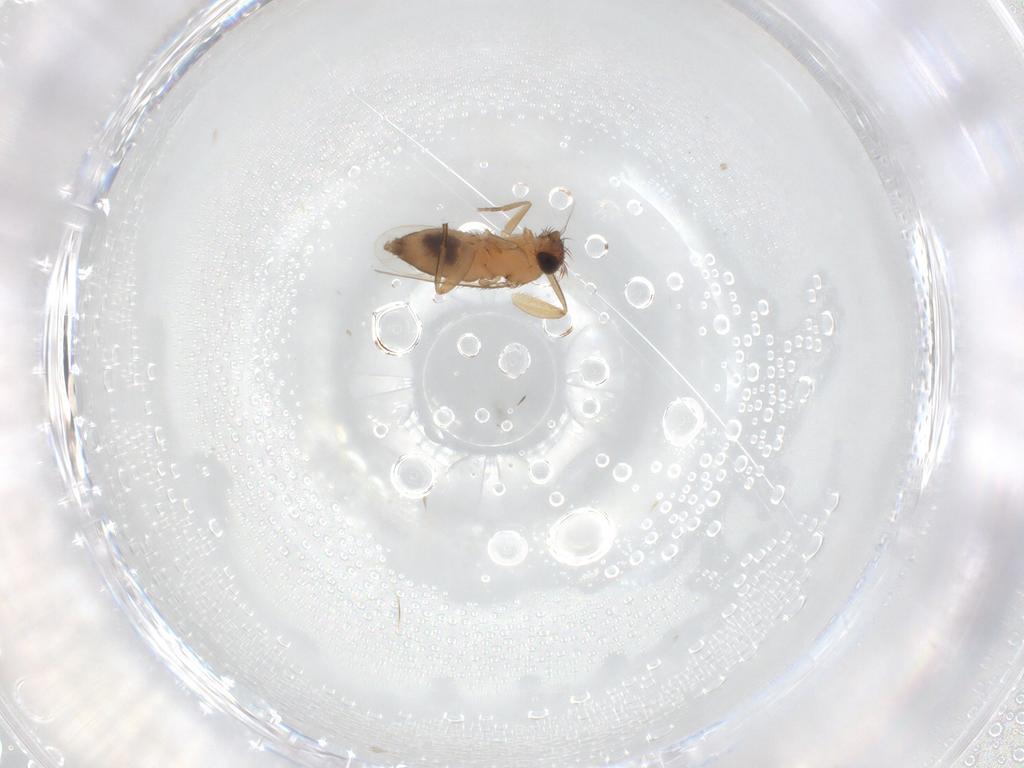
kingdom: Animalia
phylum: Arthropoda
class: Insecta
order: Diptera
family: Phoridae
